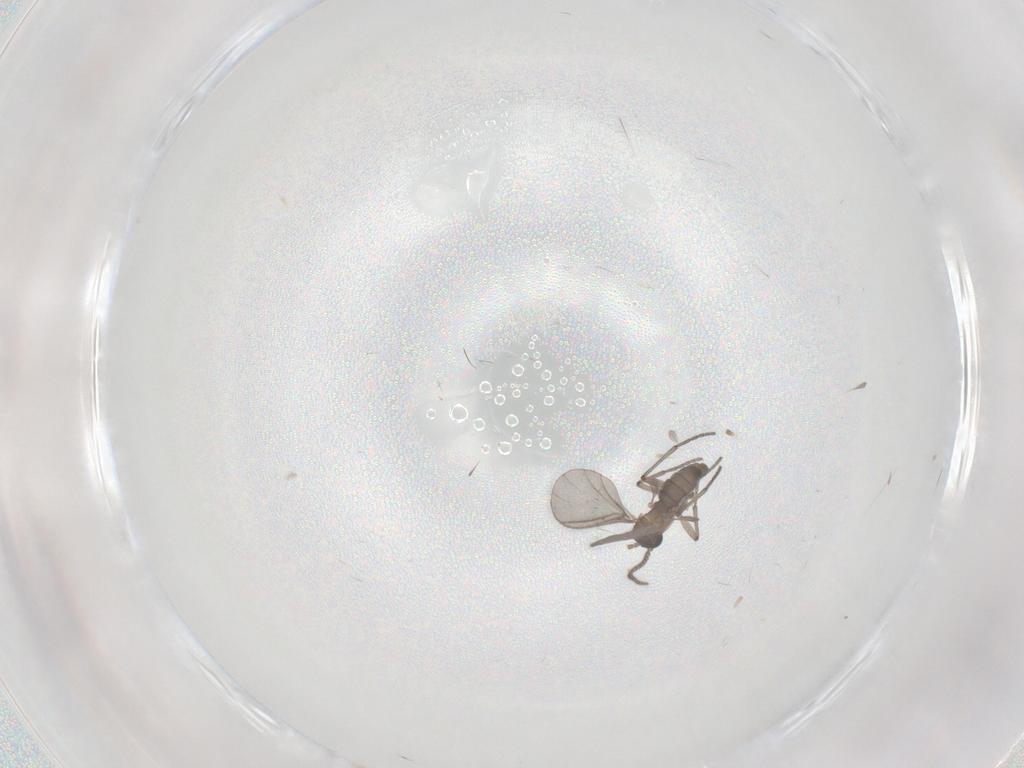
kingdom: Animalia
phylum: Arthropoda
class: Insecta
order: Diptera
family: Sciaridae
